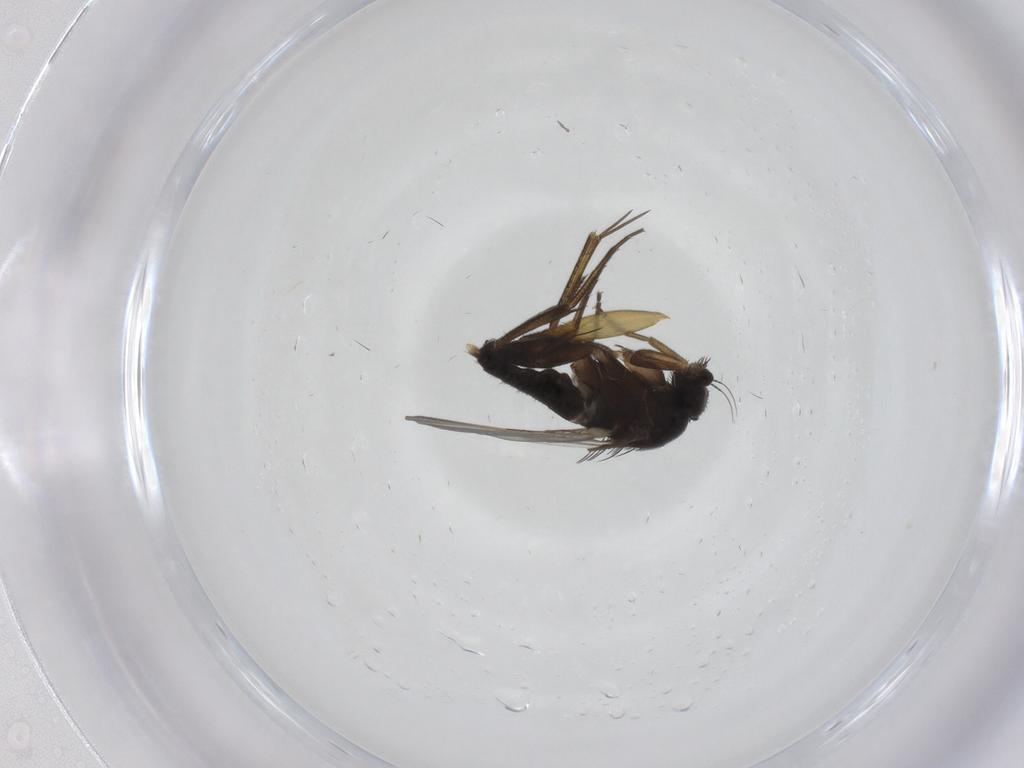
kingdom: Animalia
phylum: Arthropoda
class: Insecta
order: Diptera
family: Phoridae
